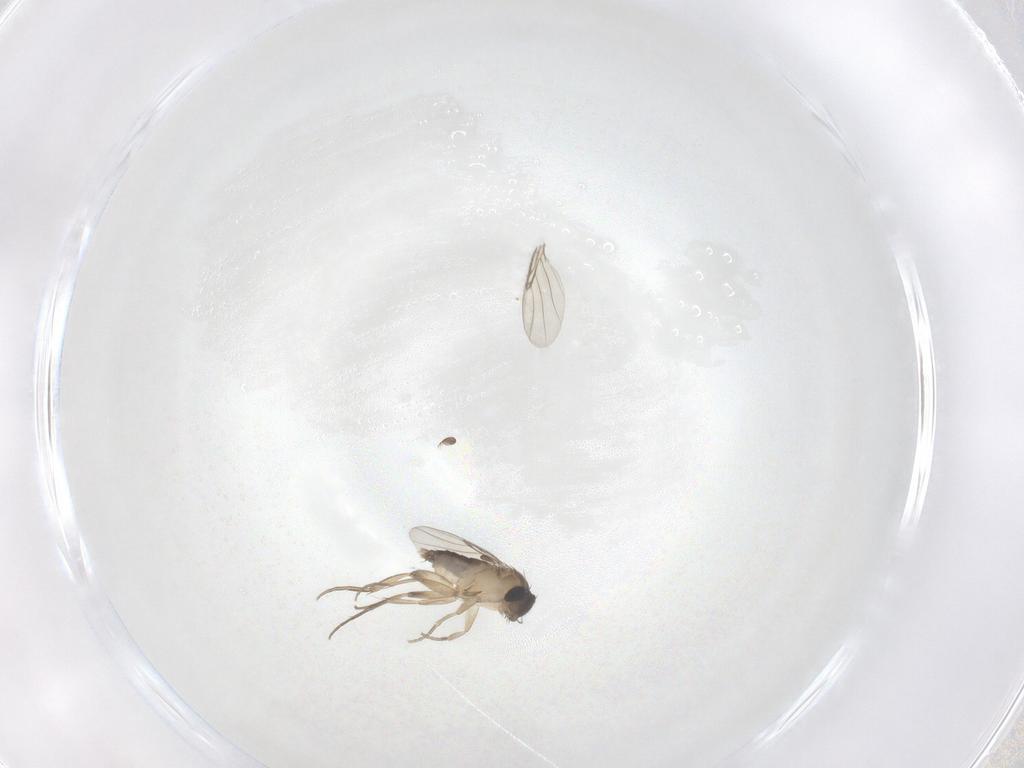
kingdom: Animalia
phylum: Arthropoda
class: Insecta
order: Diptera
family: Phoridae
